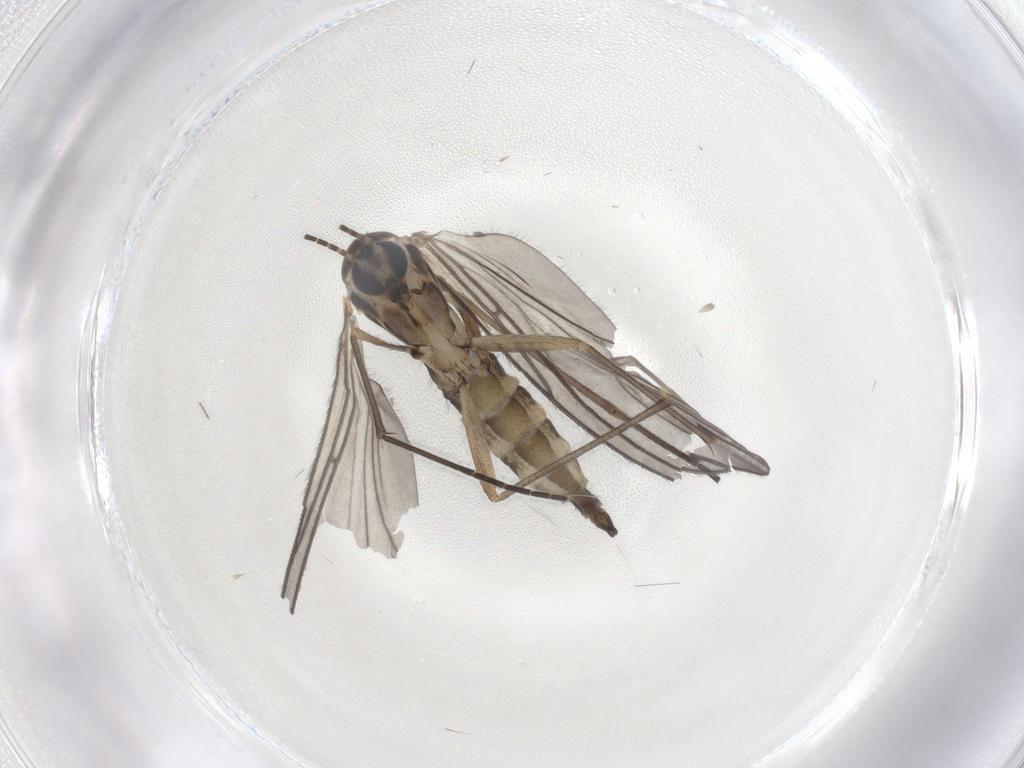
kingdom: Animalia
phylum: Arthropoda
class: Insecta
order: Diptera
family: Sciaridae
